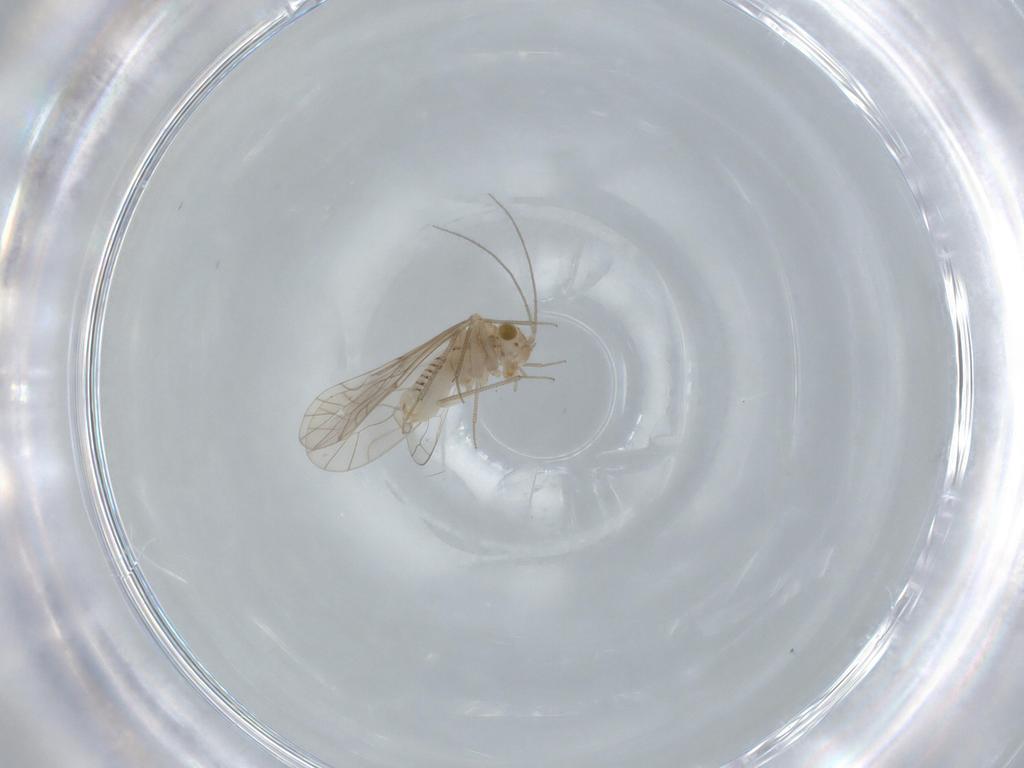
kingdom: Animalia
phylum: Arthropoda
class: Insecta
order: Psocodea
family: Lachesillidae
